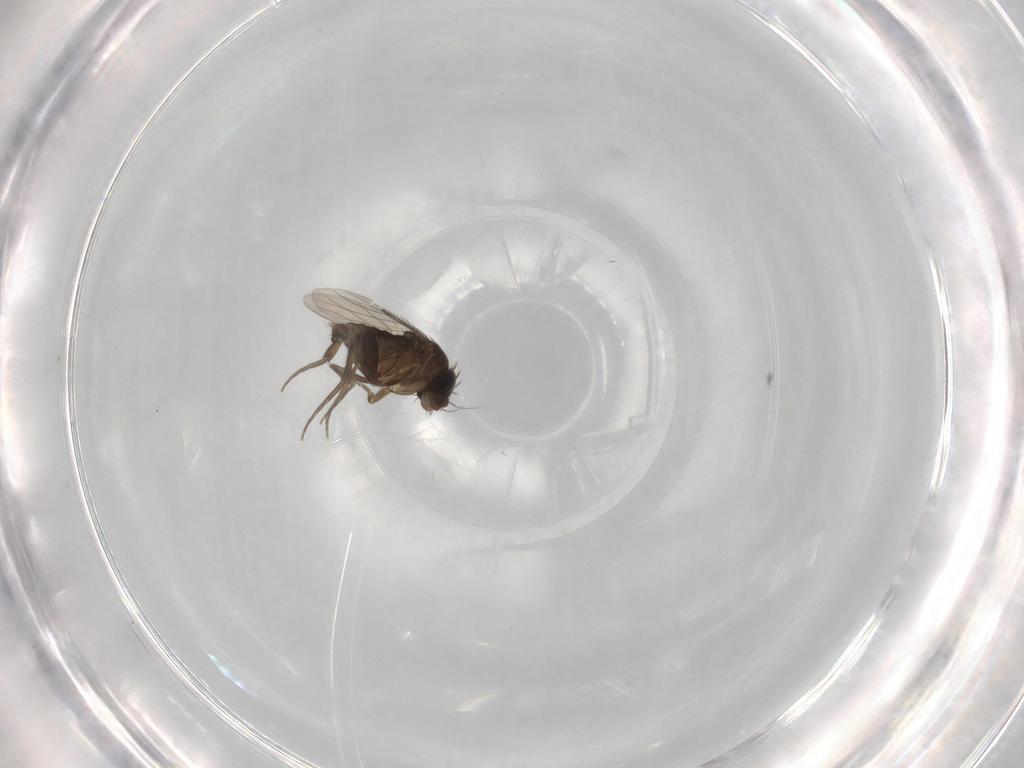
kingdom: Animalia
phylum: Arthropoda
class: Insecta
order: Diptera
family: Phoridae
